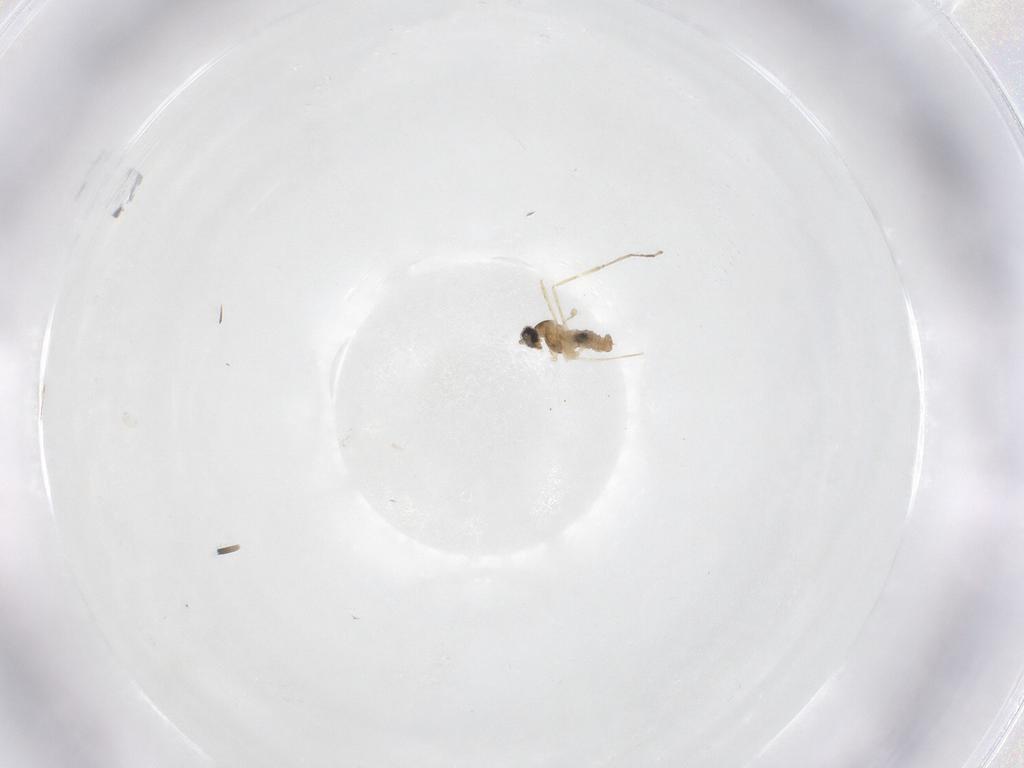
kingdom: Animalia
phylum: Arthropoda
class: Insecta
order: Diptera
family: Cecidomyiidae
